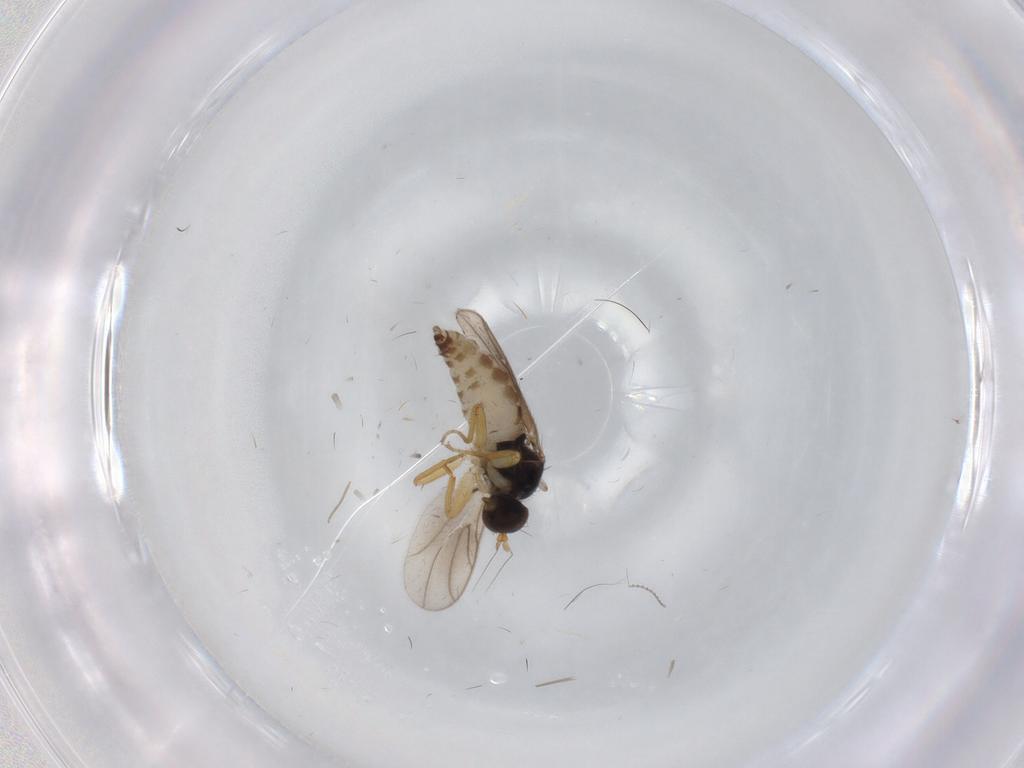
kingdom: Animalia
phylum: Arthropoda
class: Insecta
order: Diptera
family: Hybotidae
